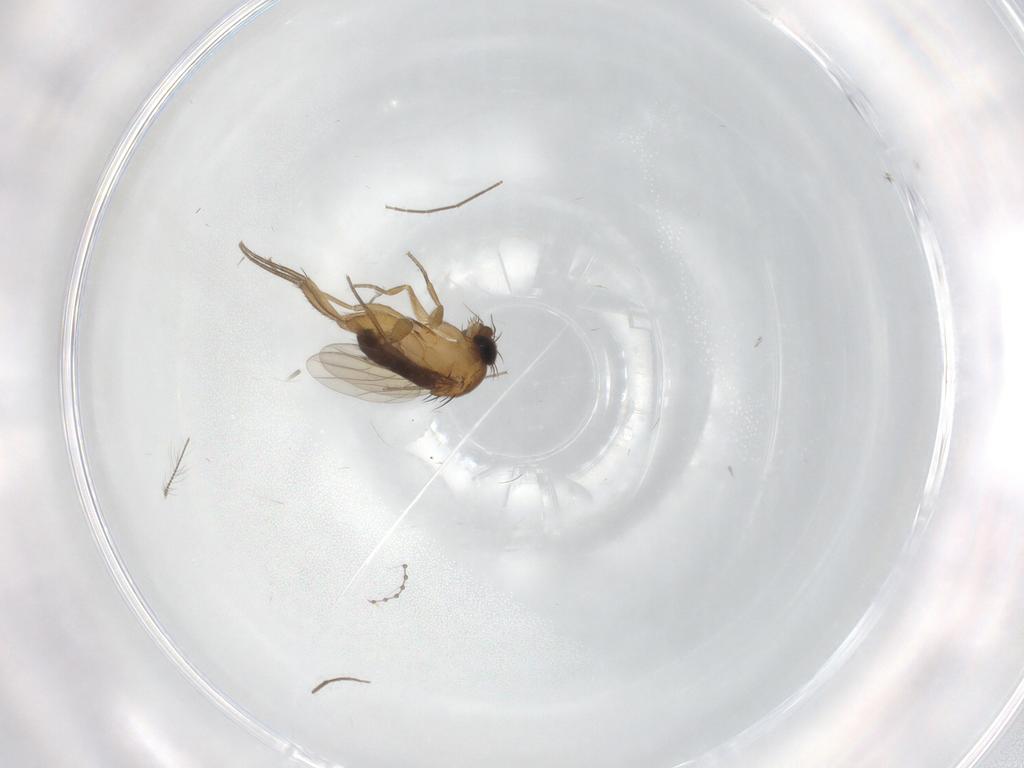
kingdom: Animalia
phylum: Arthropoda
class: Insecta
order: Diptera
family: Phoridae
